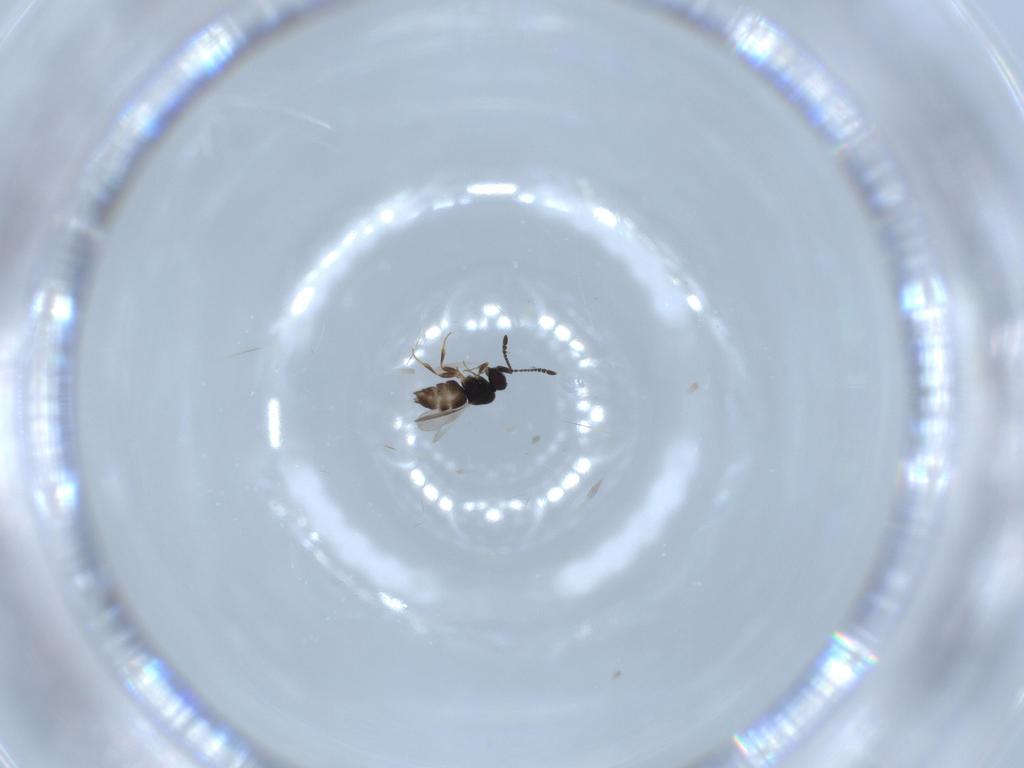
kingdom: Animalia
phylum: Arthropoda
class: Insecta
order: Hymenoptera
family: Ceraphronidae
